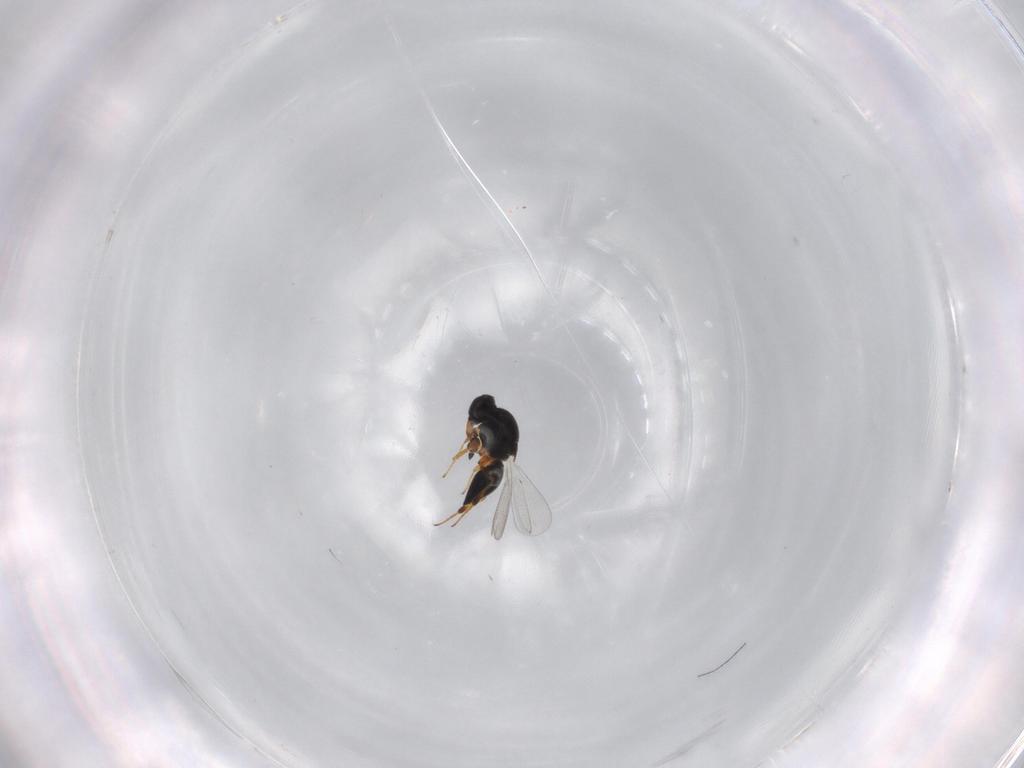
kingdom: Animalia
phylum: Arthropoda
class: Insecta
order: Hymenoptera
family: Platygastridae
